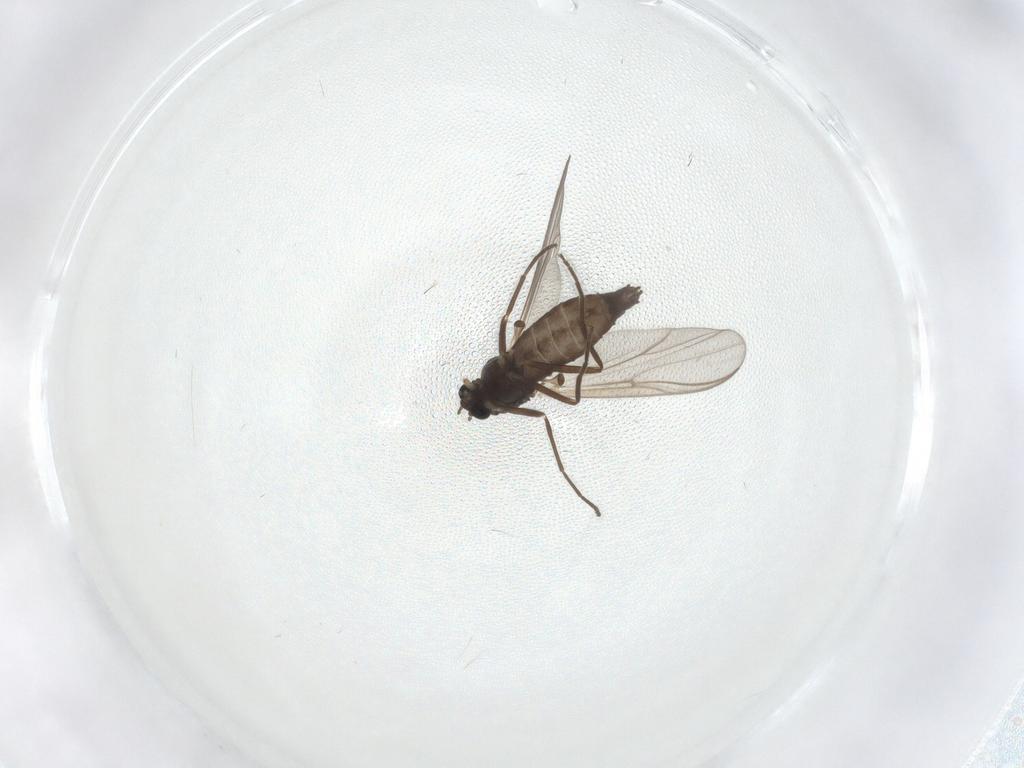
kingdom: Animalia
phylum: Arthropoda
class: Insecta
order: Diptera
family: Chironomidae
